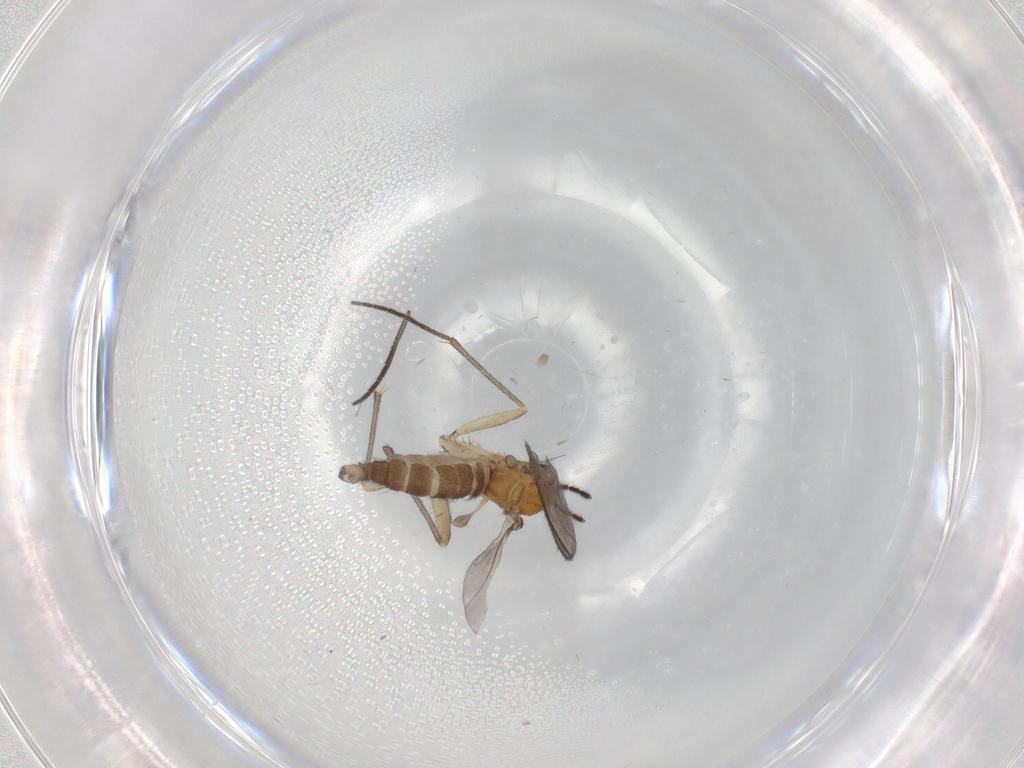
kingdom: Animalia
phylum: Arthropoda
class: Insecta
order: Diptera
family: Sciaridae
